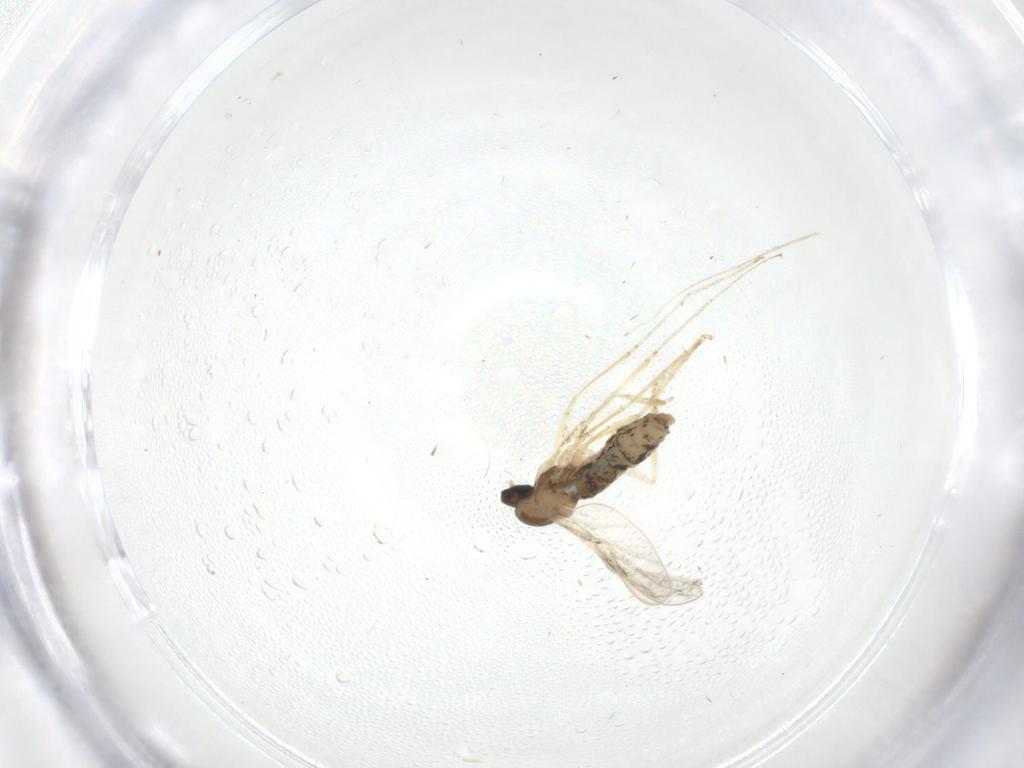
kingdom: Animalia
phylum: Arthropoda
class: Insecta
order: Diptera
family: Cecidomyiidae
